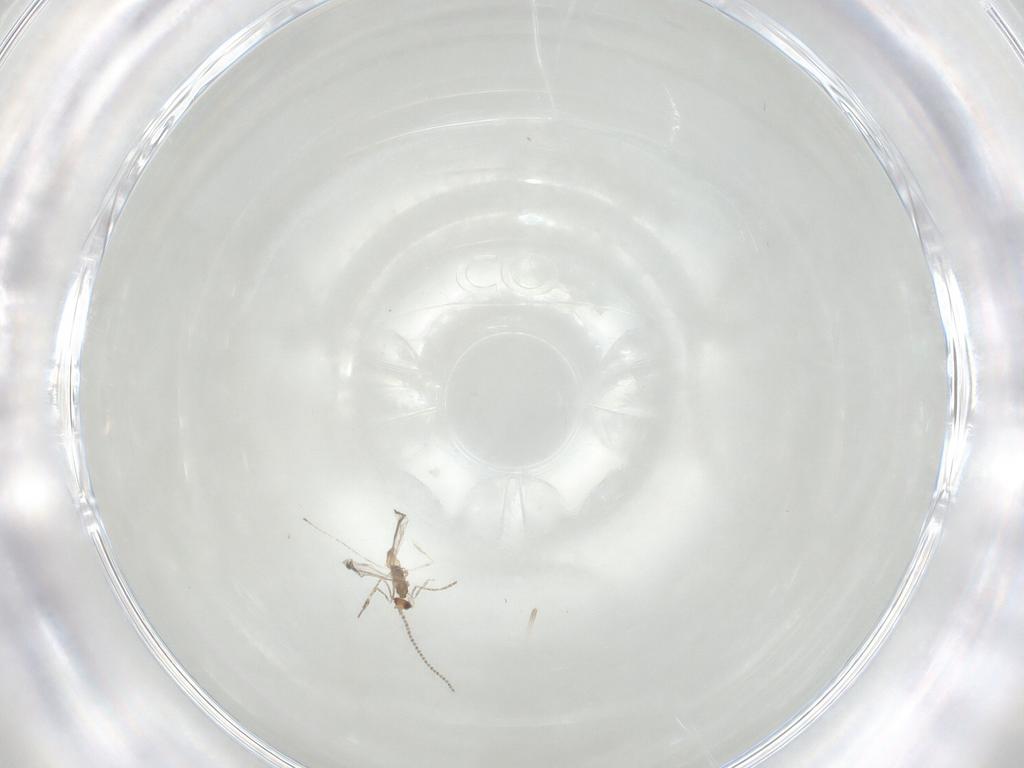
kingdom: Animalia
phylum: Arthropoda
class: Insecta
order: Diptera
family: Cecidomyiidae
